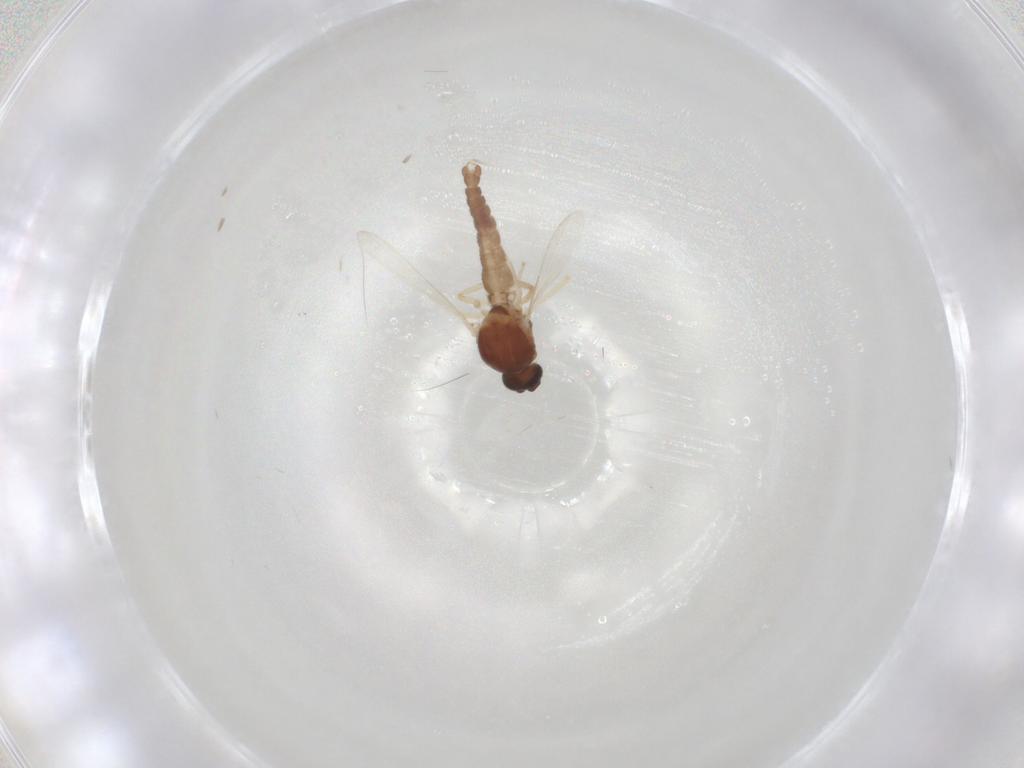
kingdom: Animalia
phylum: Arthropoda
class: Insecta
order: Diptera
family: Ceratopogonidae
